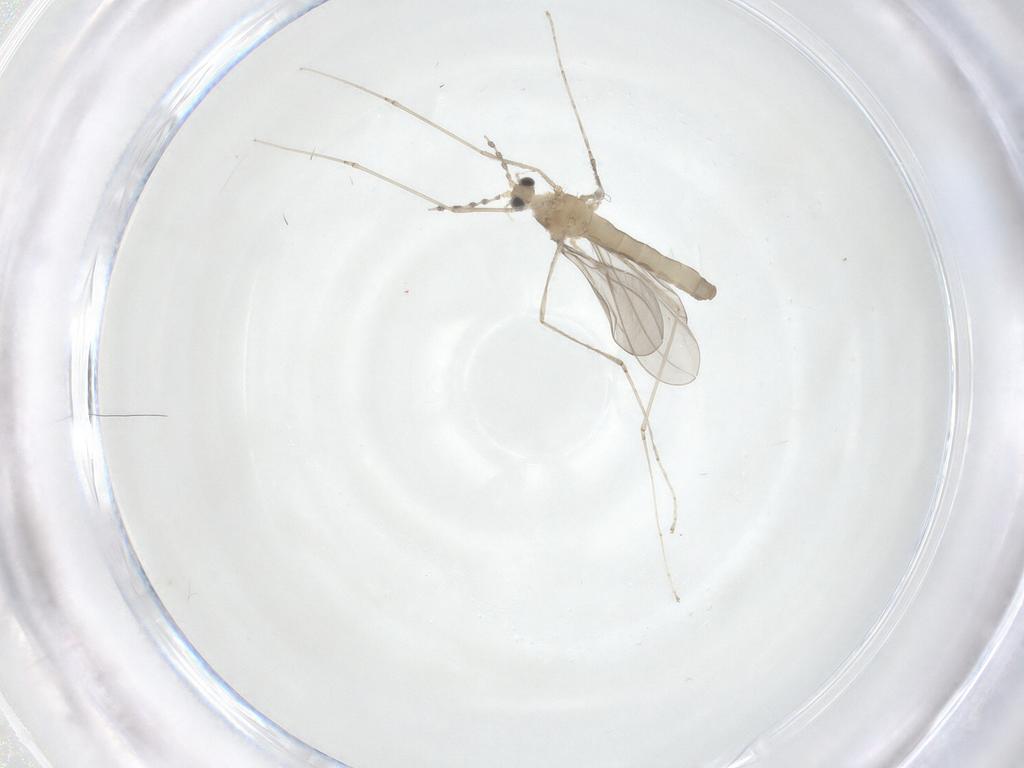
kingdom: Animalia
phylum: Arthropoda
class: Insecta
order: Diptera
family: Cecidomyiidae
